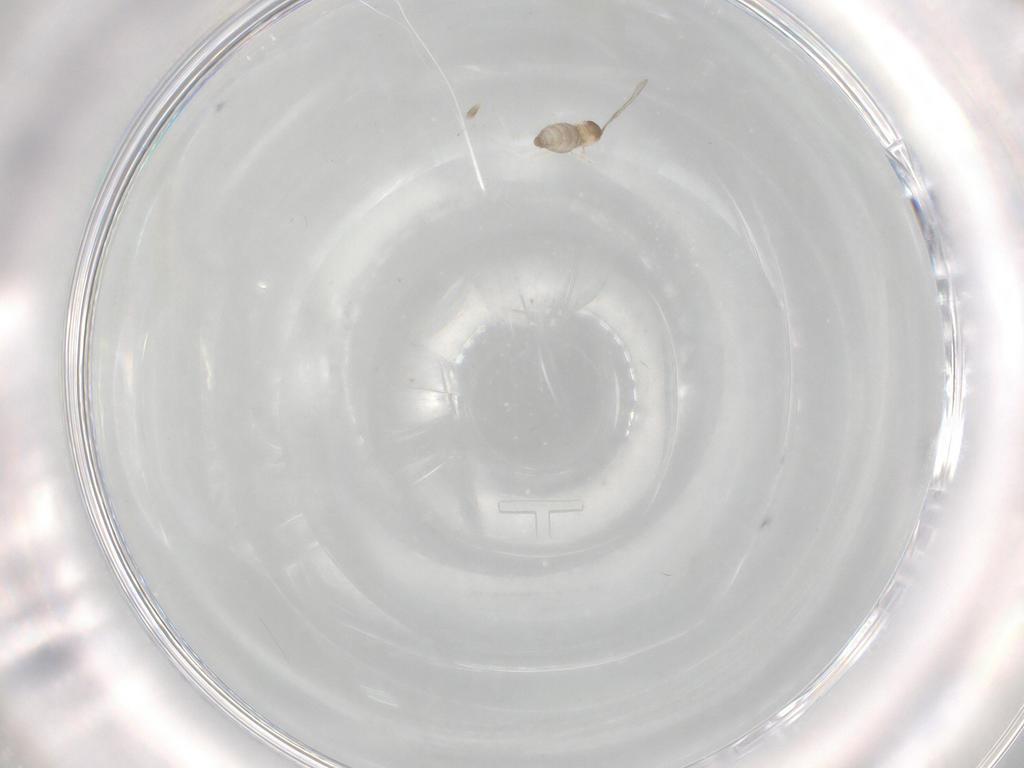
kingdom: Animalia
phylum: Arthropoda
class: Insecta
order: Diptera
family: Cecidomyiidae
